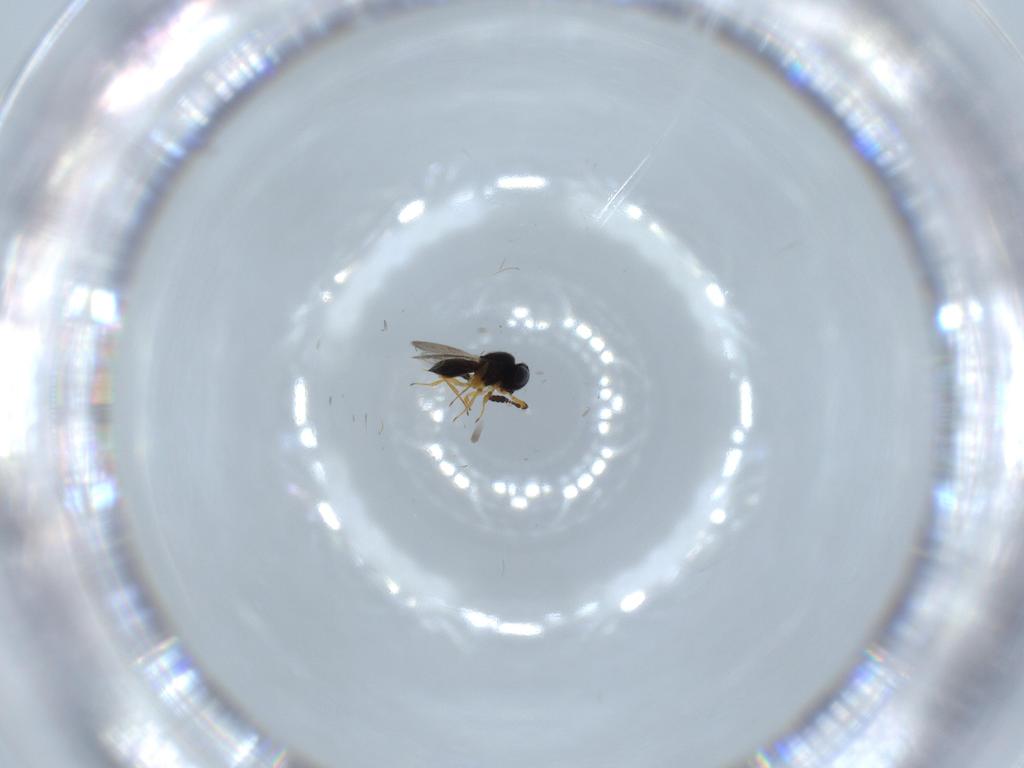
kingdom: Animalia
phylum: Arthropoda
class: Insecta
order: Hymenoptera
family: Scelionidae
